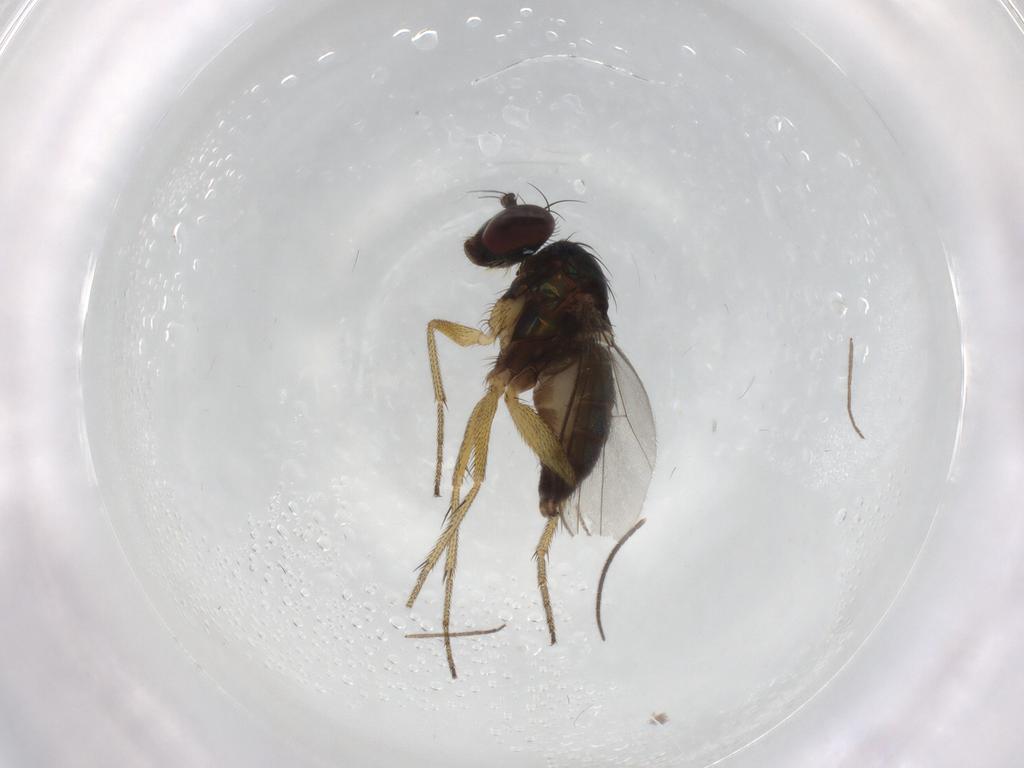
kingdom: Animalia
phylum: Arthropoda
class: Insecta
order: Diptera
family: Sciaridae
